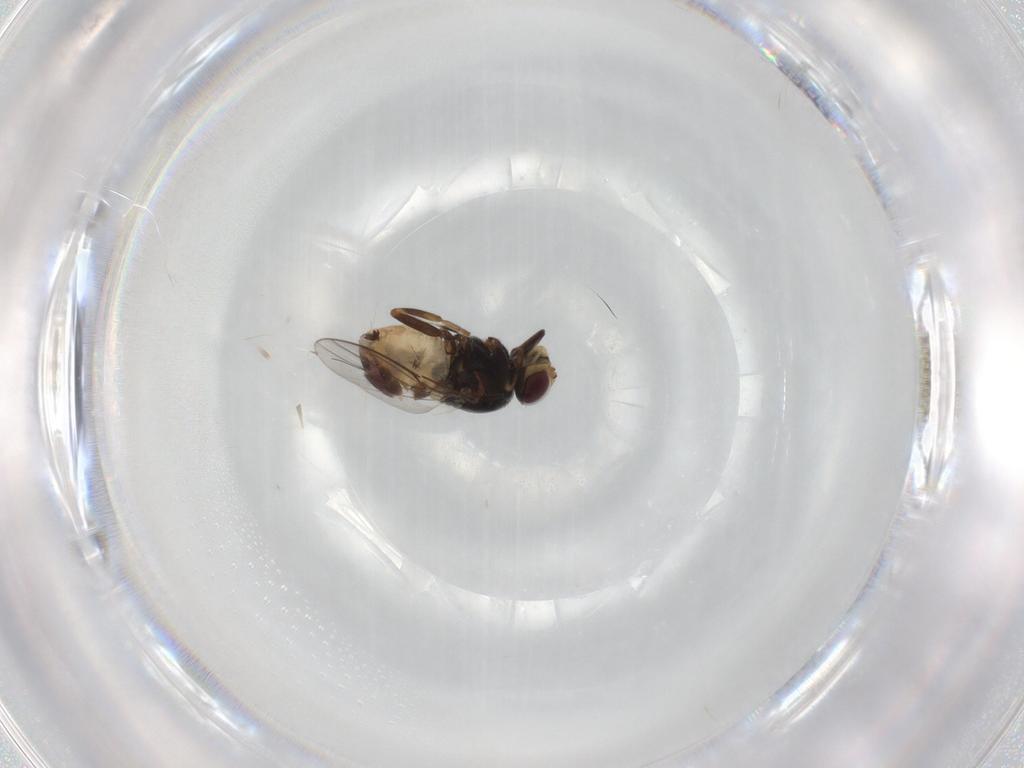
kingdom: Animalia
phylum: Arthropoda
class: Insecta
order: Diptera
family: Chloropidae
